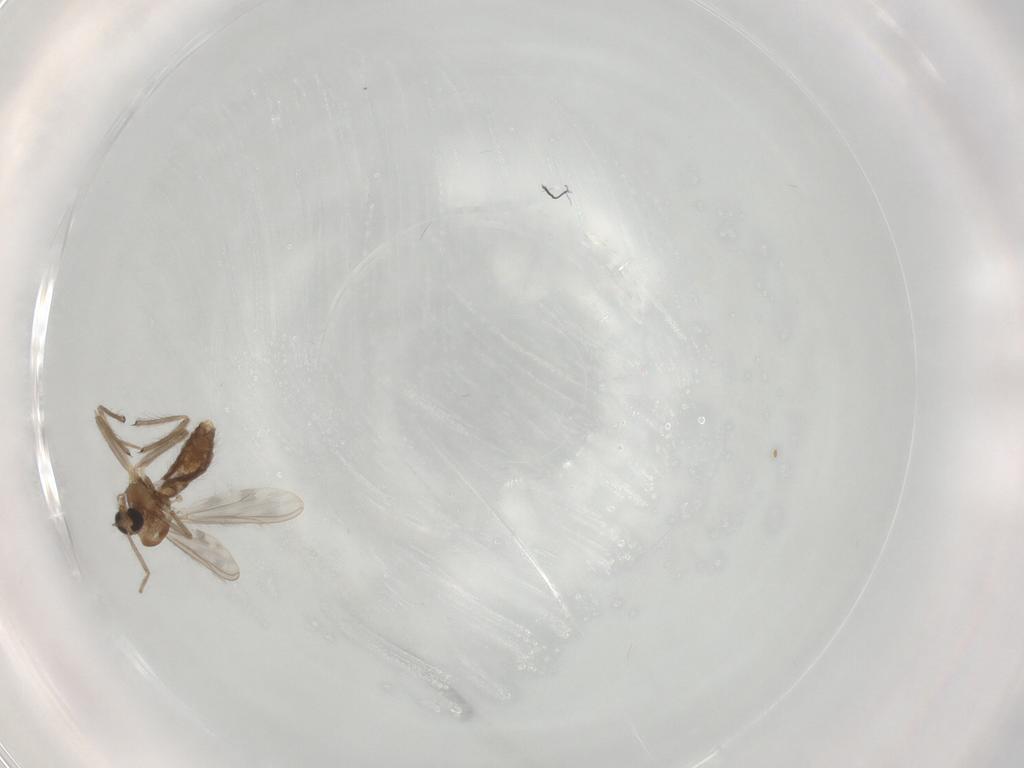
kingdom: Animalia
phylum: Arthropoda
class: Insecta
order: Diptera
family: Chironomidae
